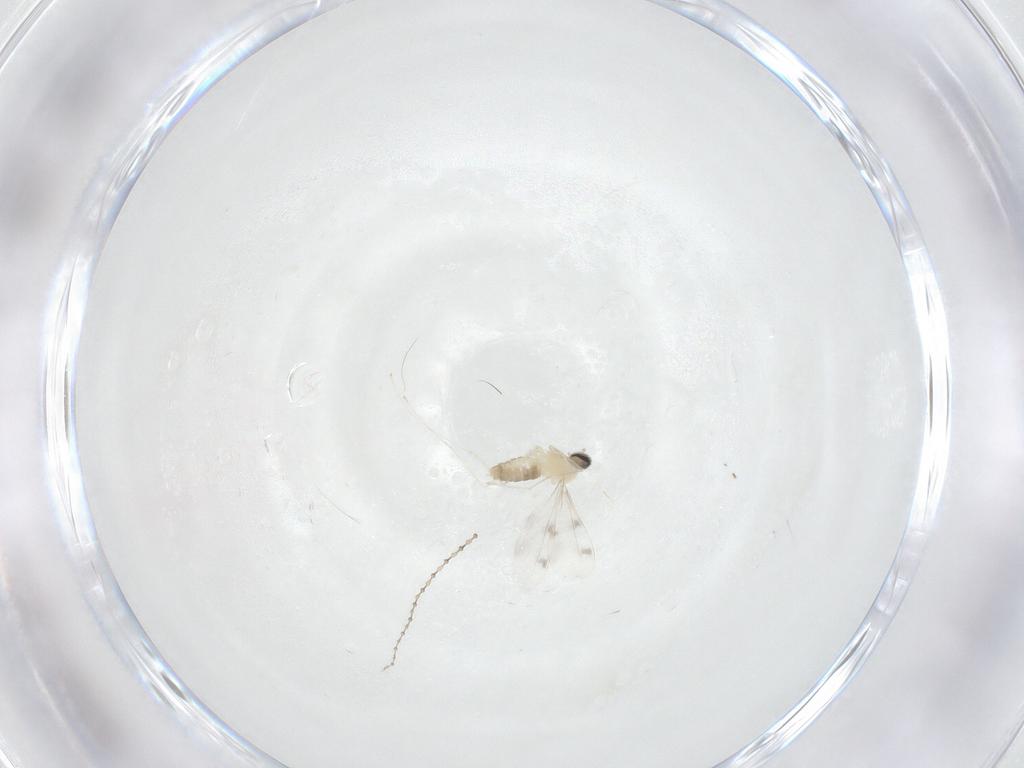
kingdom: Animalia
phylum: Arthropoda
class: Insecta
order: Diptera
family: Cecidomyiidae
